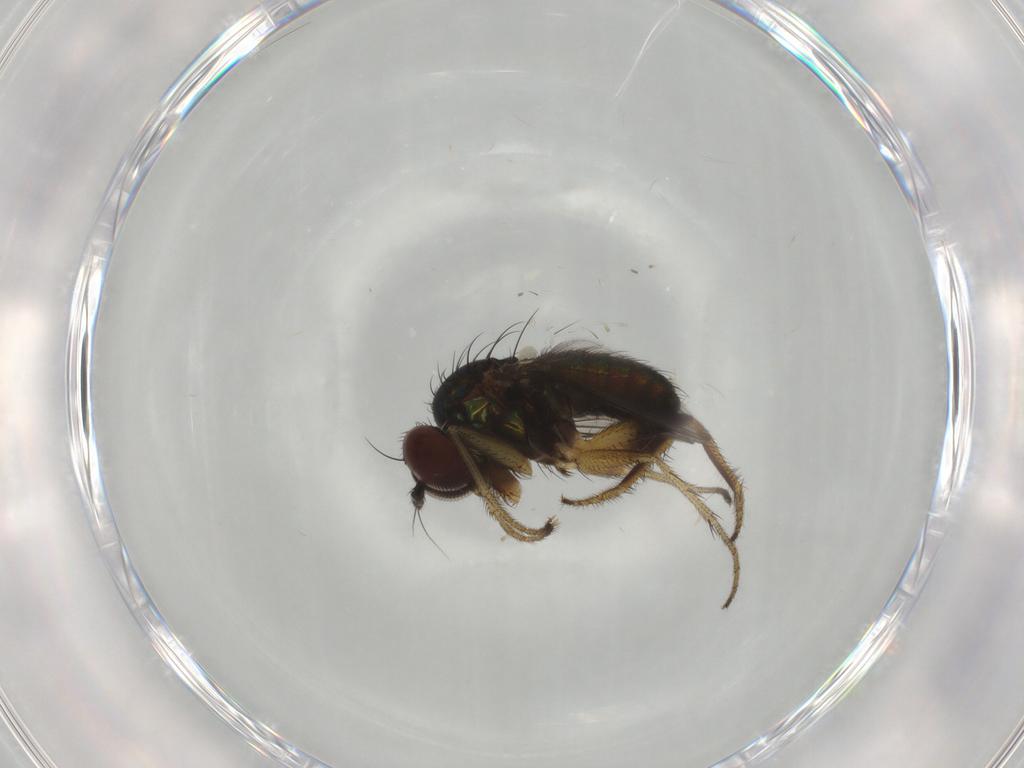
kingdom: Animalia
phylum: Arthropoda
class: Insecta
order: Diptera
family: Dolichopodidae
